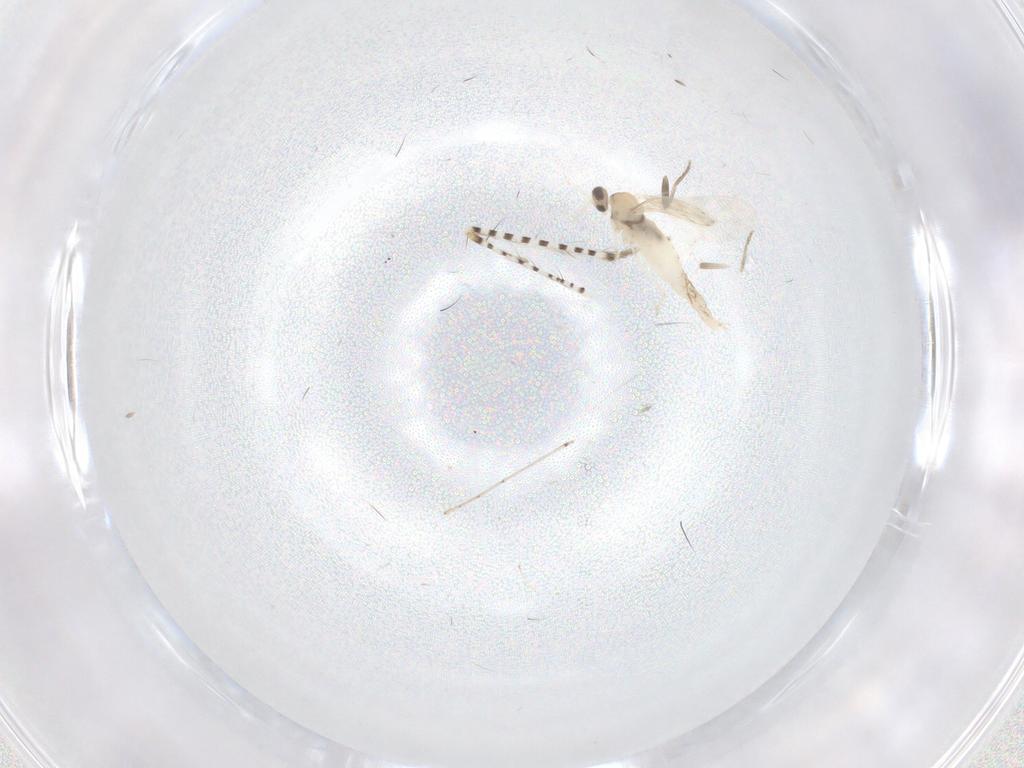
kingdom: Animalia
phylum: Arthropoda
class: Insecta
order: Diptera
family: Cecidomyiidae
